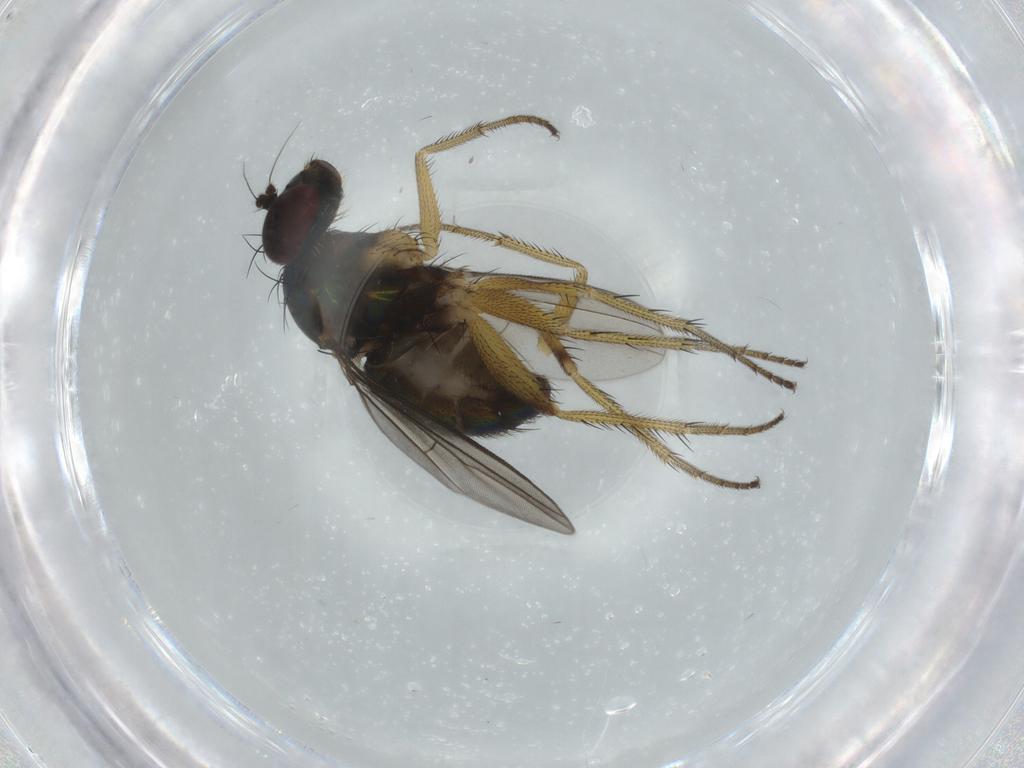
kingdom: Animalia
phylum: Arthropoda
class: Insecta
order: Diptera
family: Dolichopodidae
